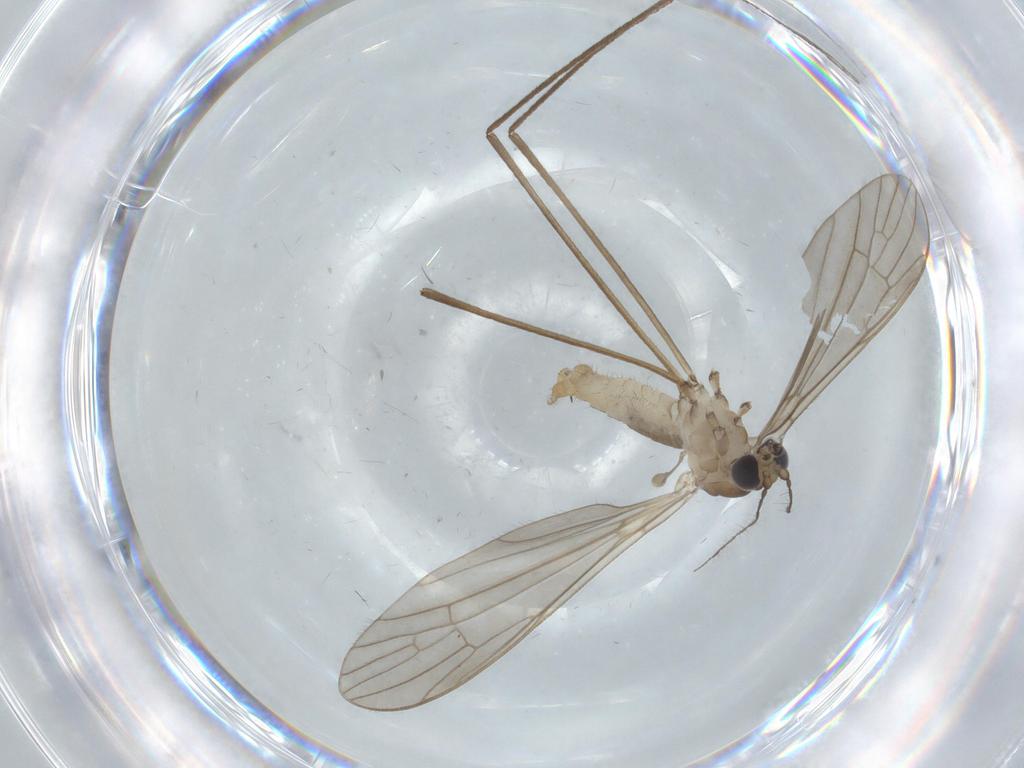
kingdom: Animalia
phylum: Arthropoda
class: Insecta
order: Diptera
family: Ceratopogonidae
